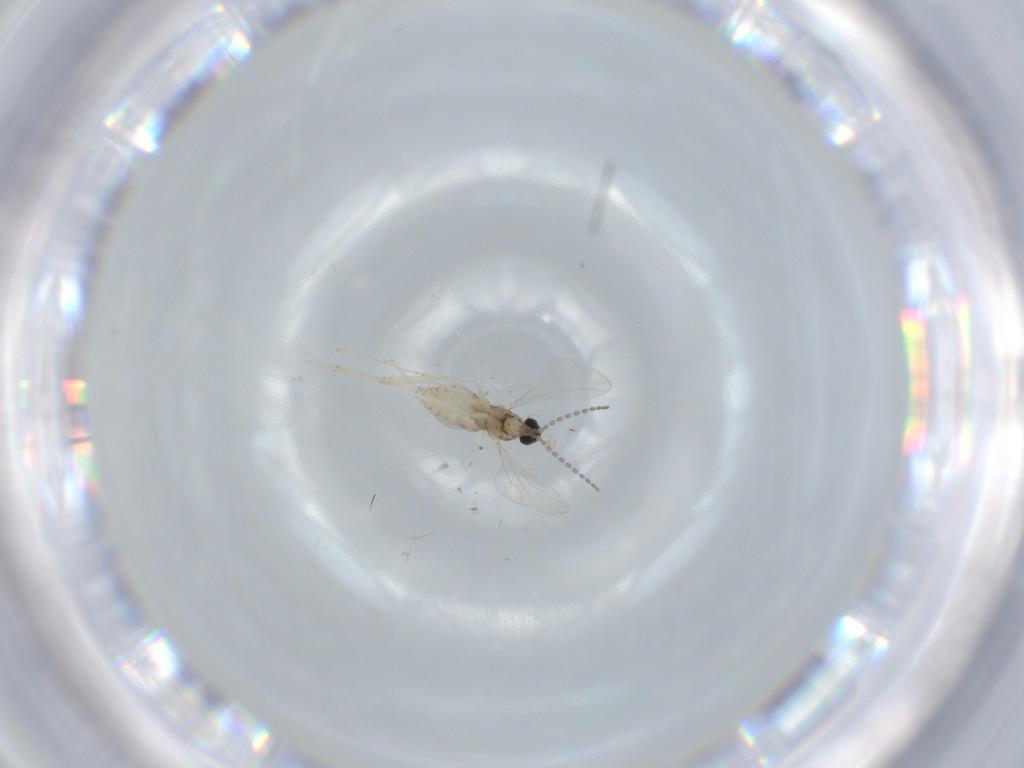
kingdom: Animalia
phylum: Arthropoda
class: Insecta
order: Diptera
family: Cecidomyiidae
